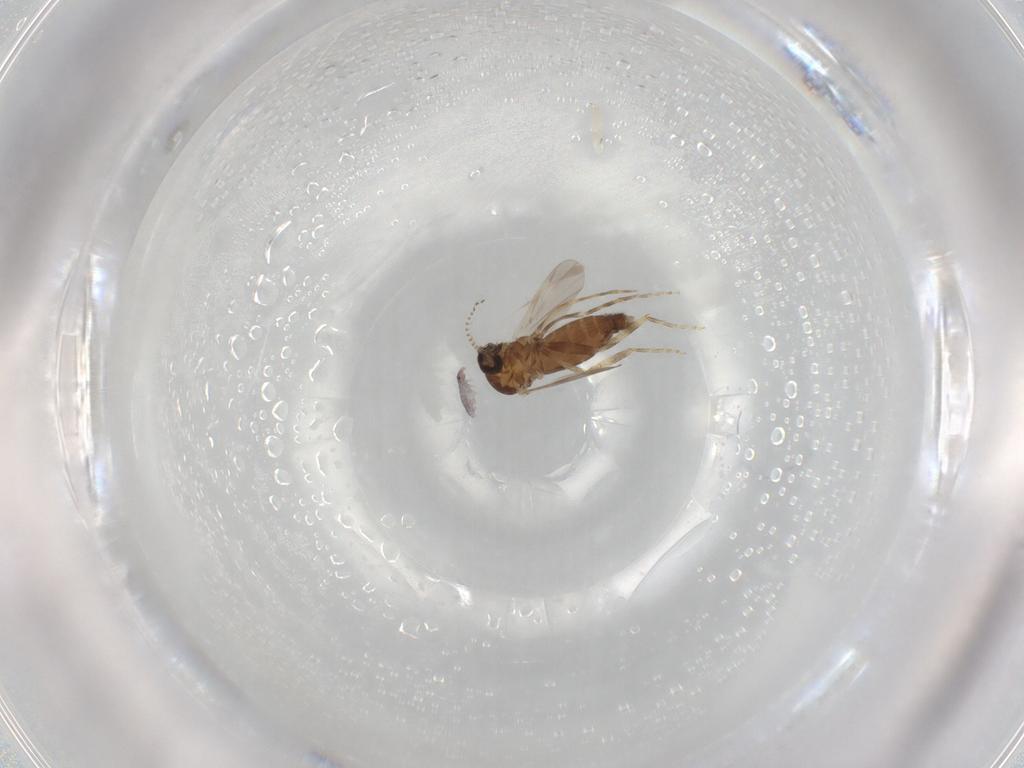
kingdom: Animalia
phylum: Arthropoda
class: Insecta
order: Diptera
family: Ceratopogonidae
